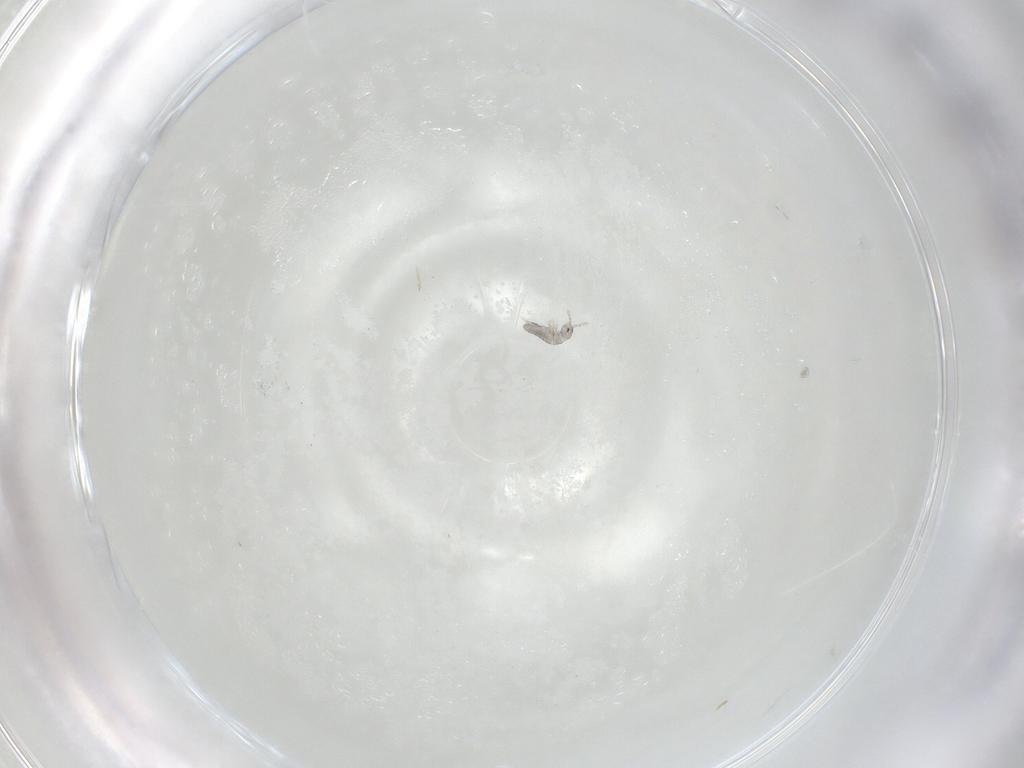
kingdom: Animalia
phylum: Arthropoda
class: Collembola
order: Entomobryomorpha
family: Isotomidae
